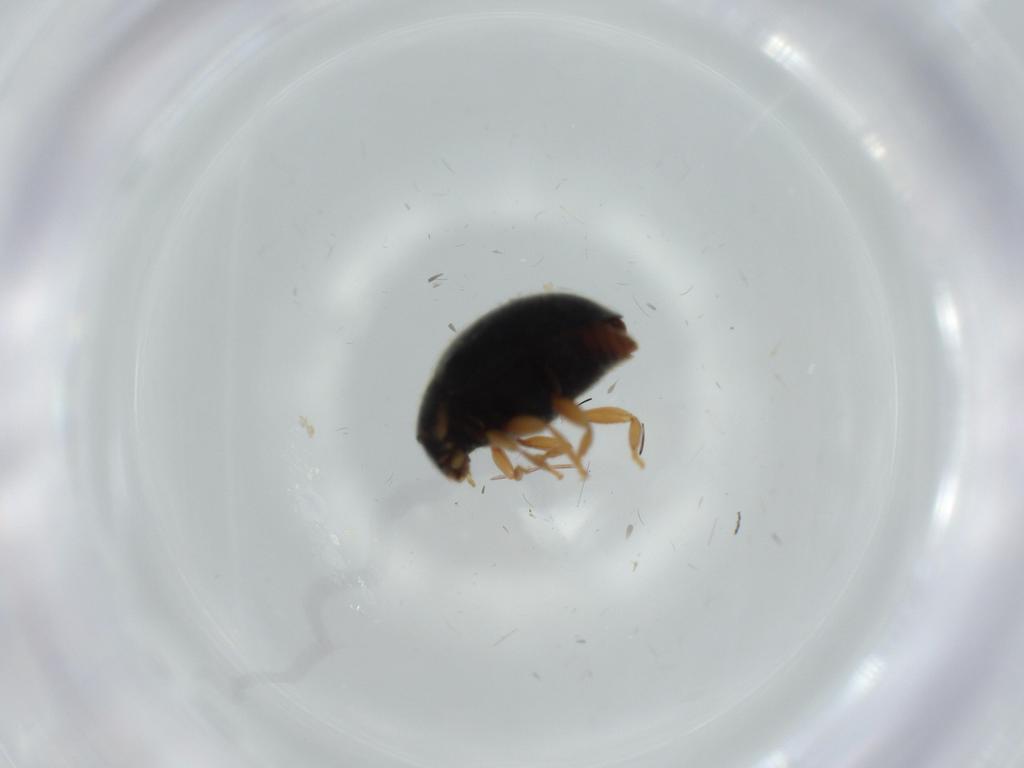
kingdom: Animalia
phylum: Arthropoda
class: Insecta
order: Coleoptera
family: Coccinellidae
